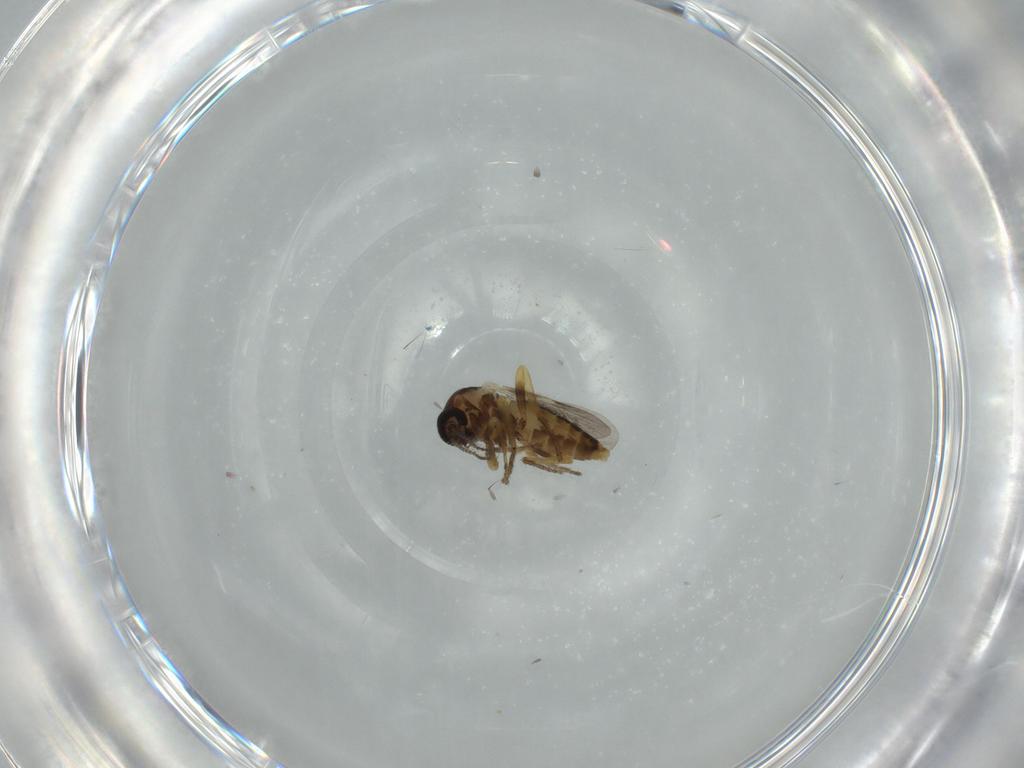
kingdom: Animalia
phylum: Arthropoda
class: Insecta
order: Diptera
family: Ceratopogonidae
